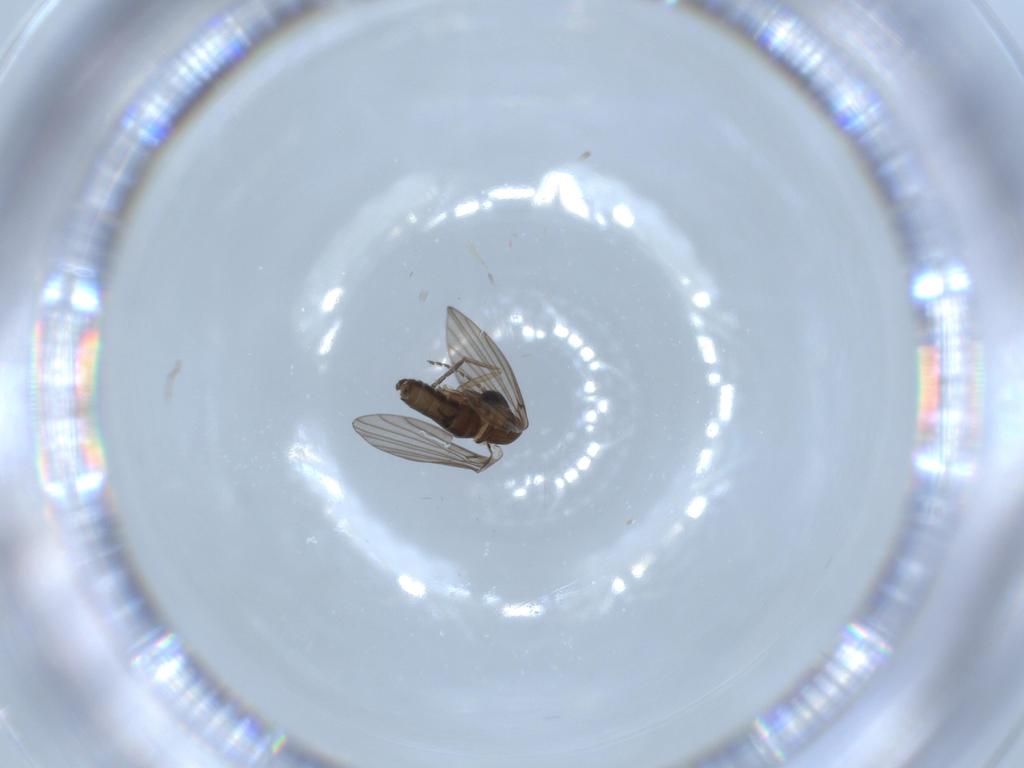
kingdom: Animalia
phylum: Arthropoda
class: Insecta
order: Diptera
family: Psychodidae
